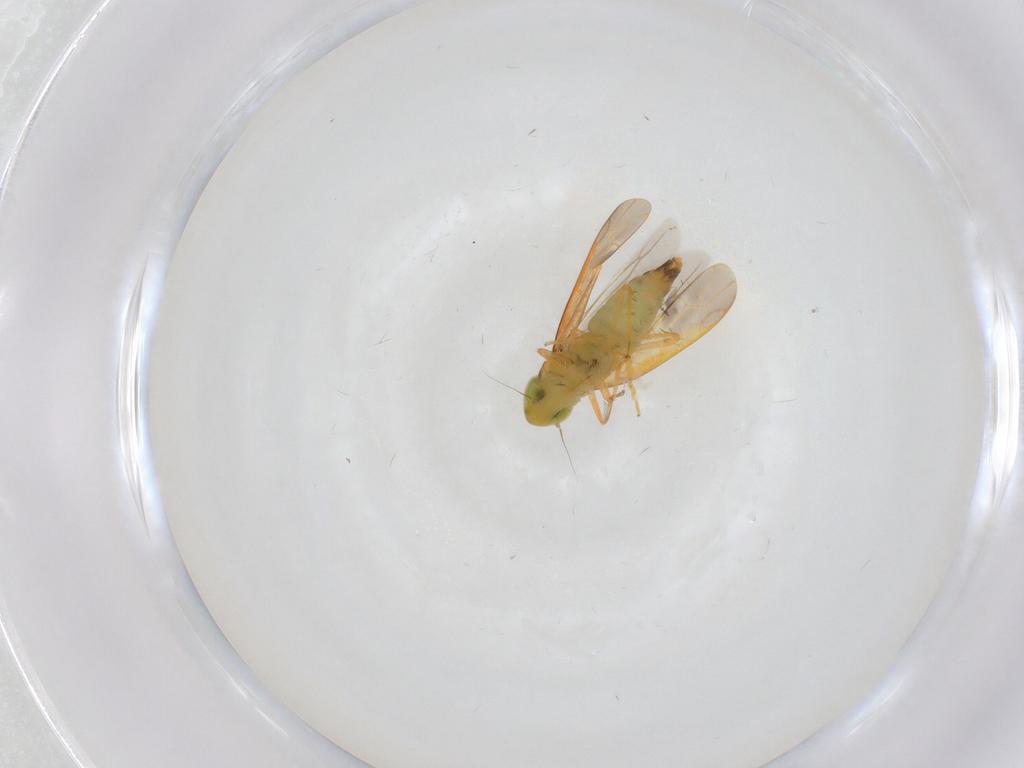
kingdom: Animalia
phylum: Arthropoda
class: Insecta
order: Hemiptera
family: Cicadellidae
